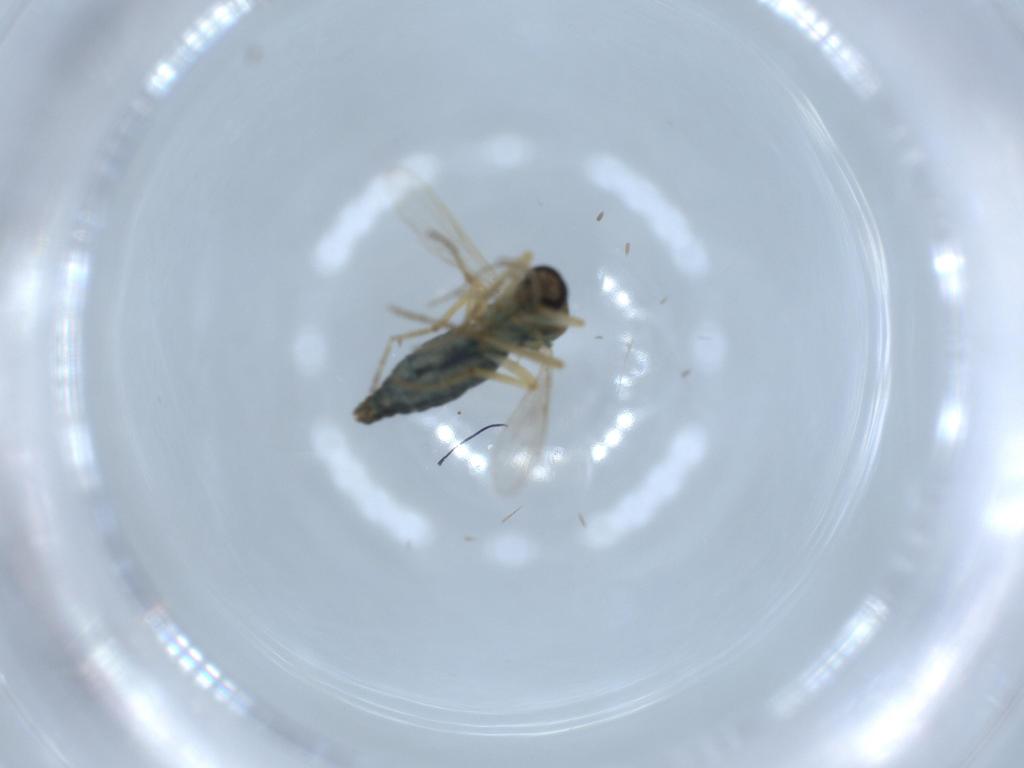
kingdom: Animalia
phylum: Arthropoda
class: Insecta
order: Diptera
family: Ceratopogonidae
